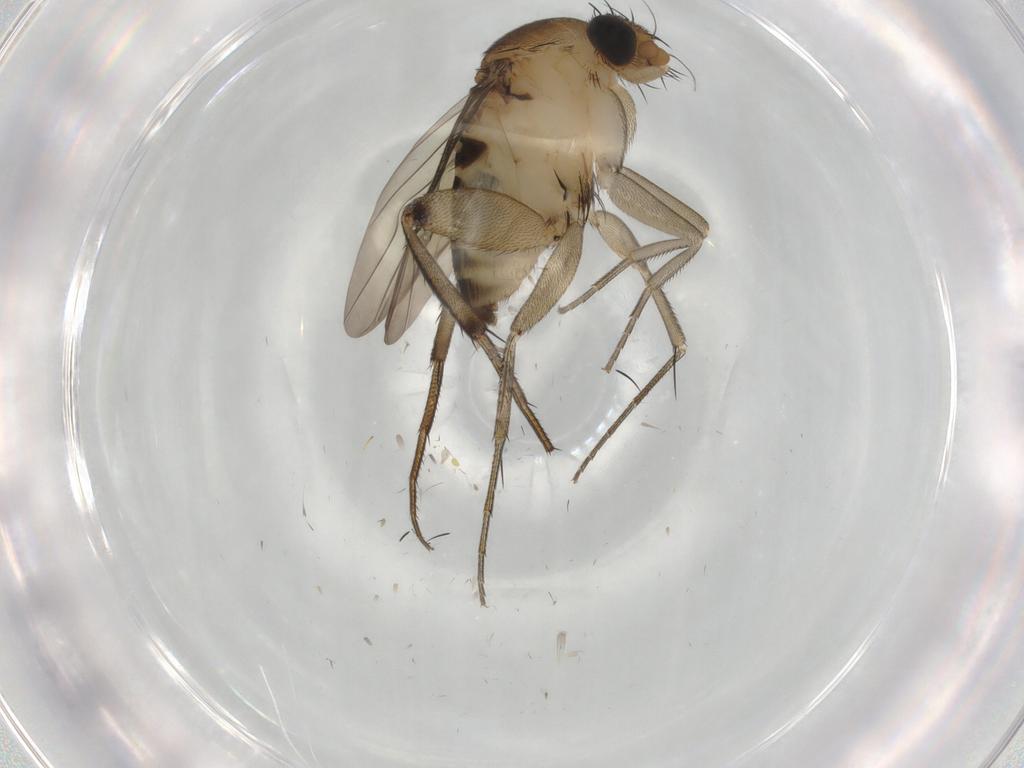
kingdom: Animalia
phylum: Arthropoda
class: Insecta
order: Diptera
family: Phoridae
